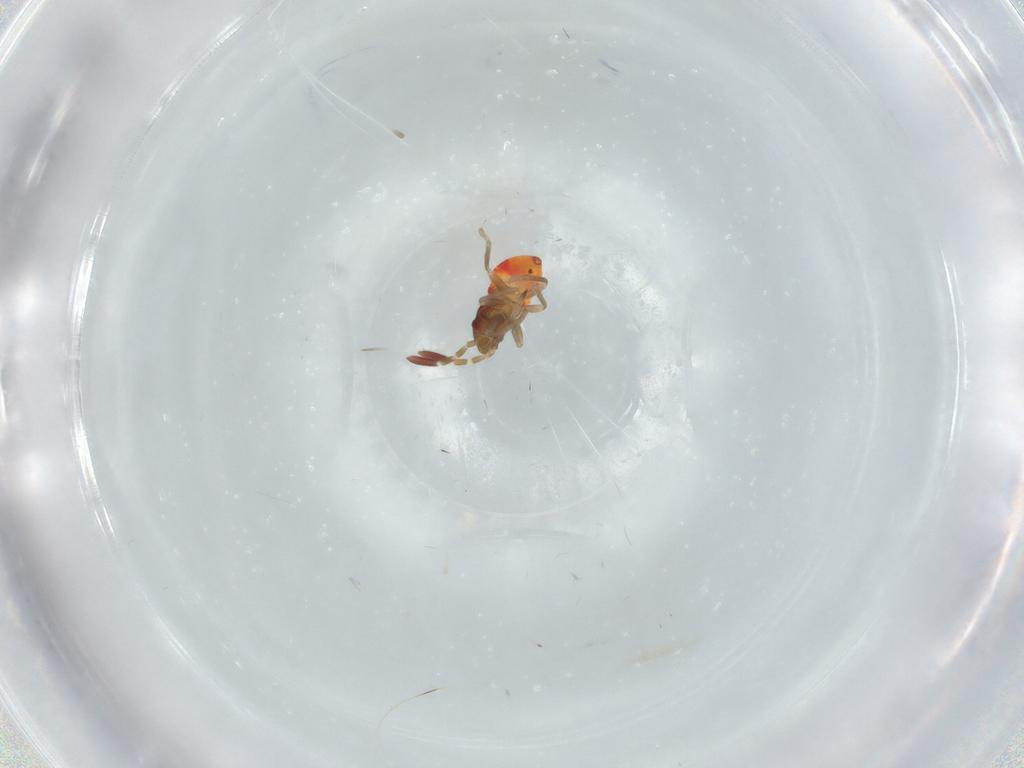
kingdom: Animalia
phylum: Arthropoda
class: Insecta
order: Hemiptera
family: Rhyparochromidae
